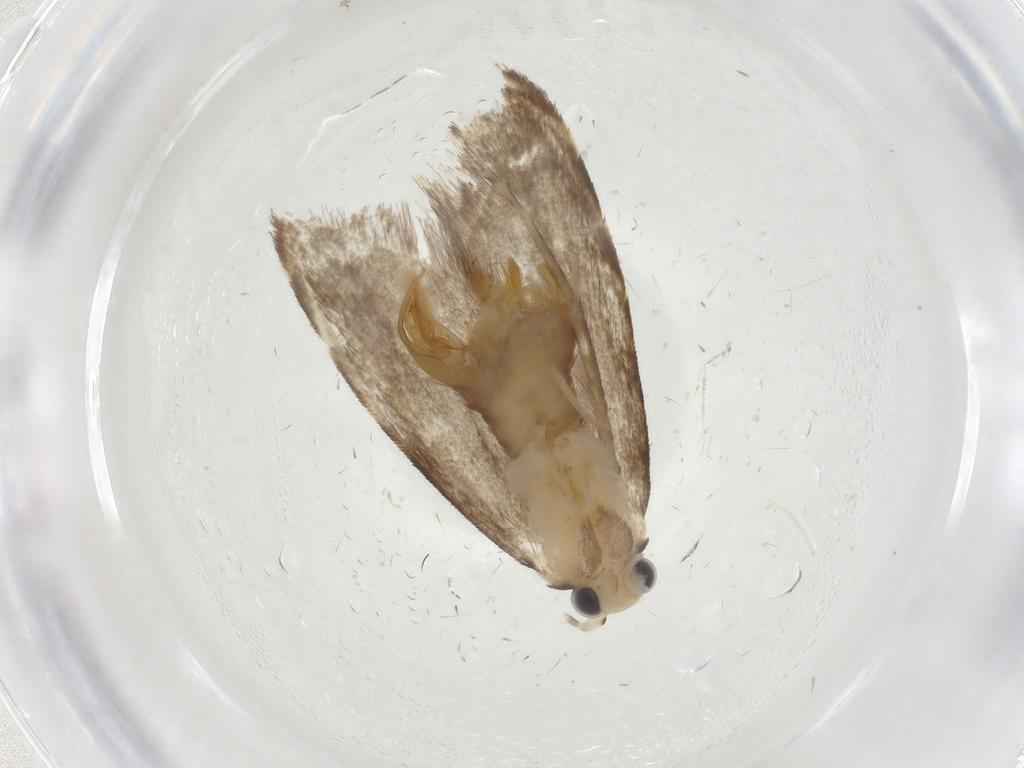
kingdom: Animalia
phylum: Arthropoda
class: Insecta
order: Lepidoptera
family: Tineidae
